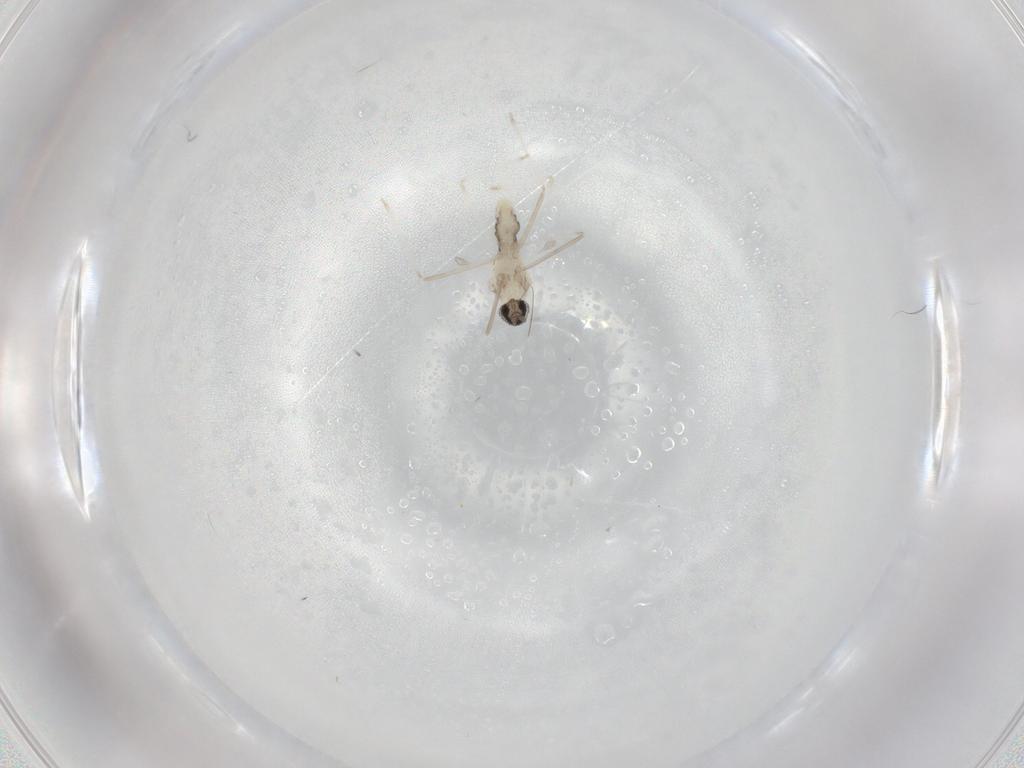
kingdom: Animalia
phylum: Arthropoda
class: Insecta
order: Diptera
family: Cecidomyiidae
